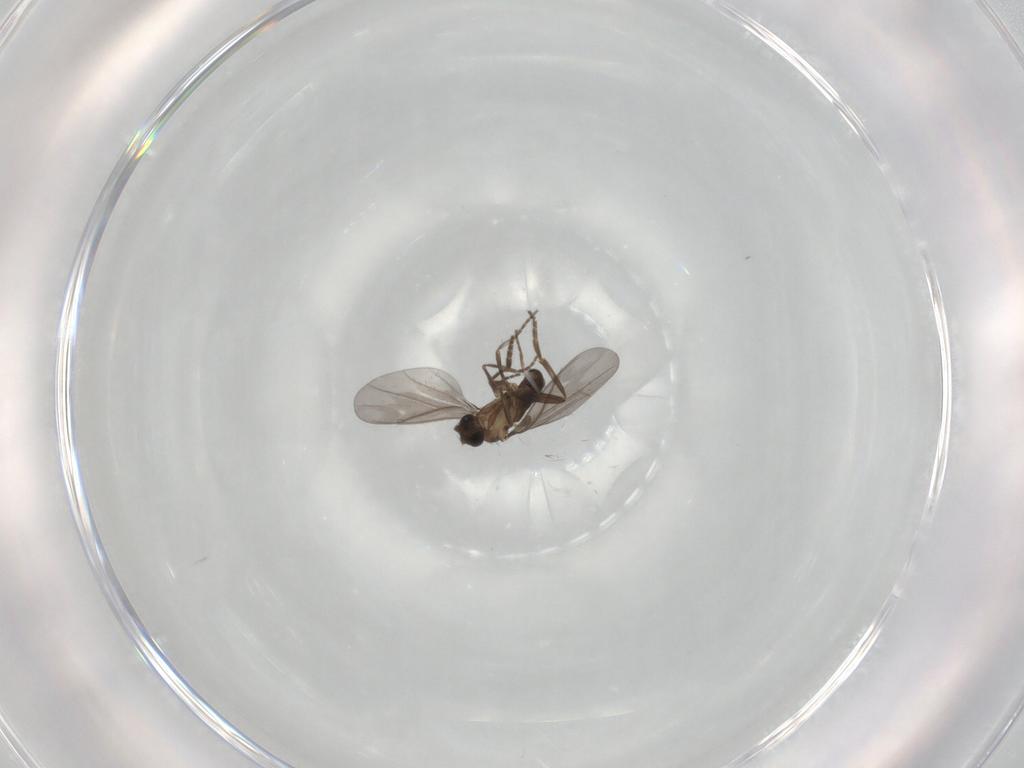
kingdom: Animalia
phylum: Arthropoda
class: Insecta
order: Diptera
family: Phoridae
